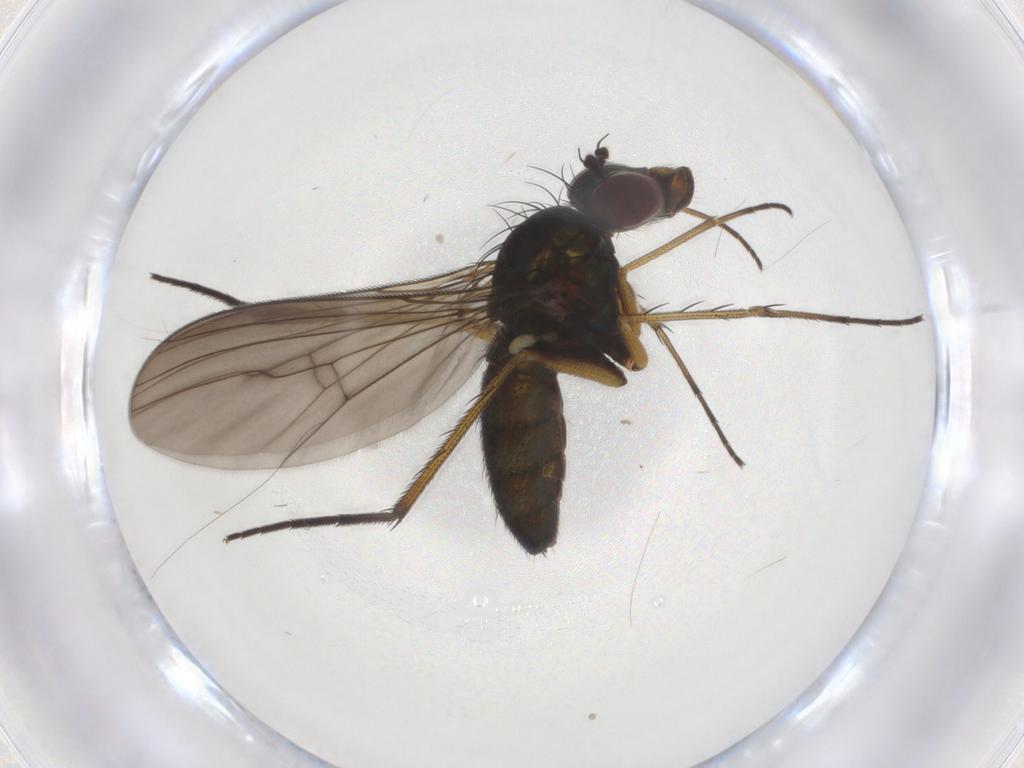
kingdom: Animalia
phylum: Arthropoda
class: Insecta
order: Diptera
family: Dolichopodidae
